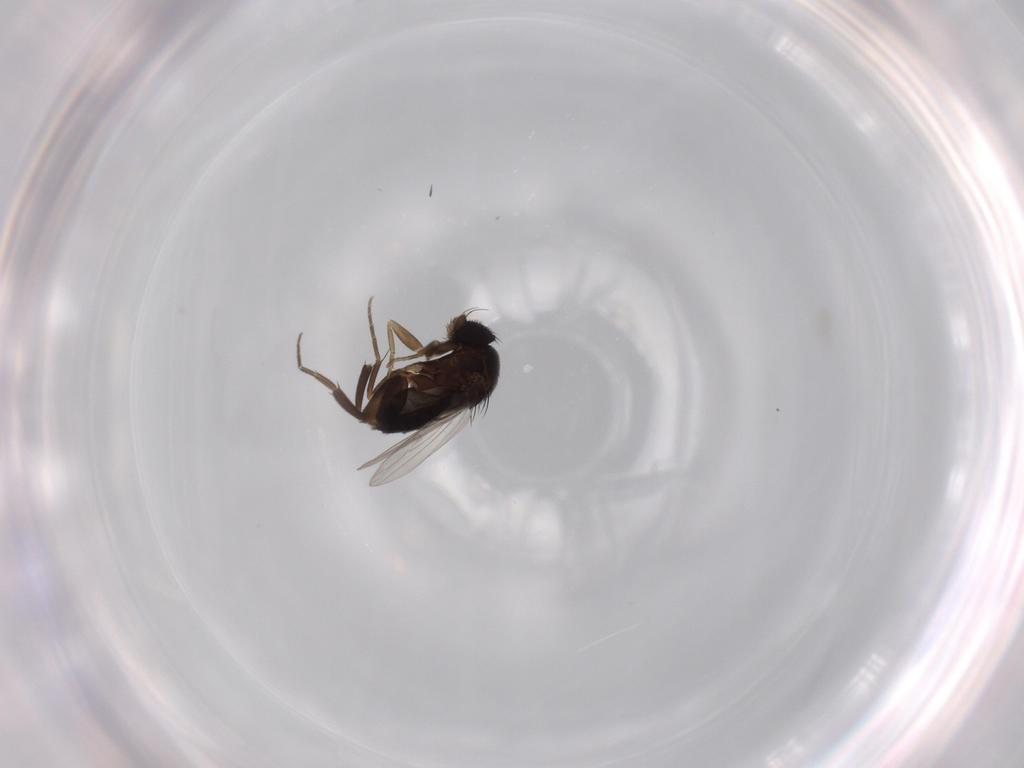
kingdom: Animalia
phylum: Arthropoda
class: Insecta
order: Diptera
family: Phoridae
